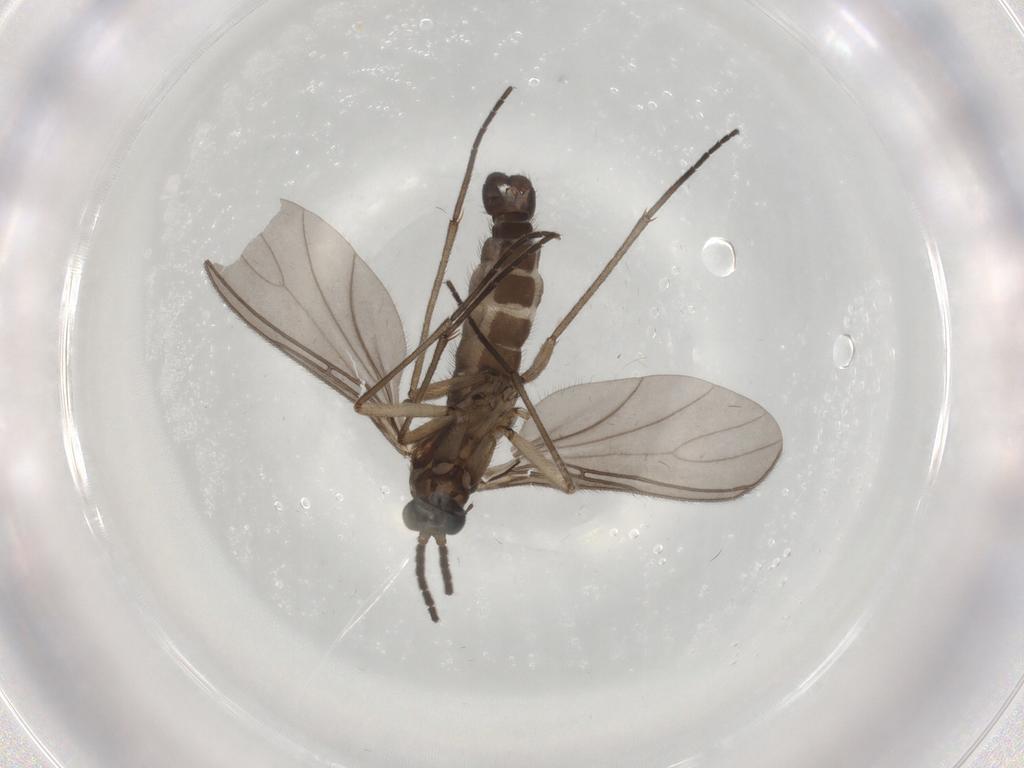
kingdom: Animalia
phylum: Arthropoda
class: Insecta
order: Diptera
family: Sciaridae
